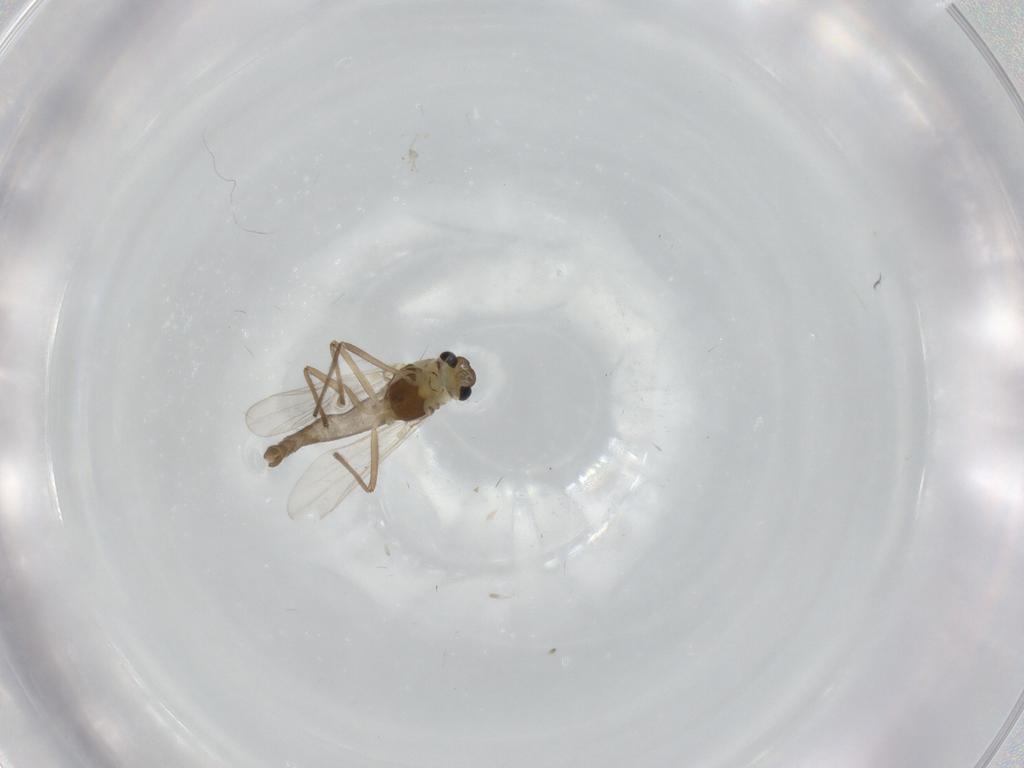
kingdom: Animalia
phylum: Arthropoda
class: Insecta
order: Diptera
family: Chironomidae
